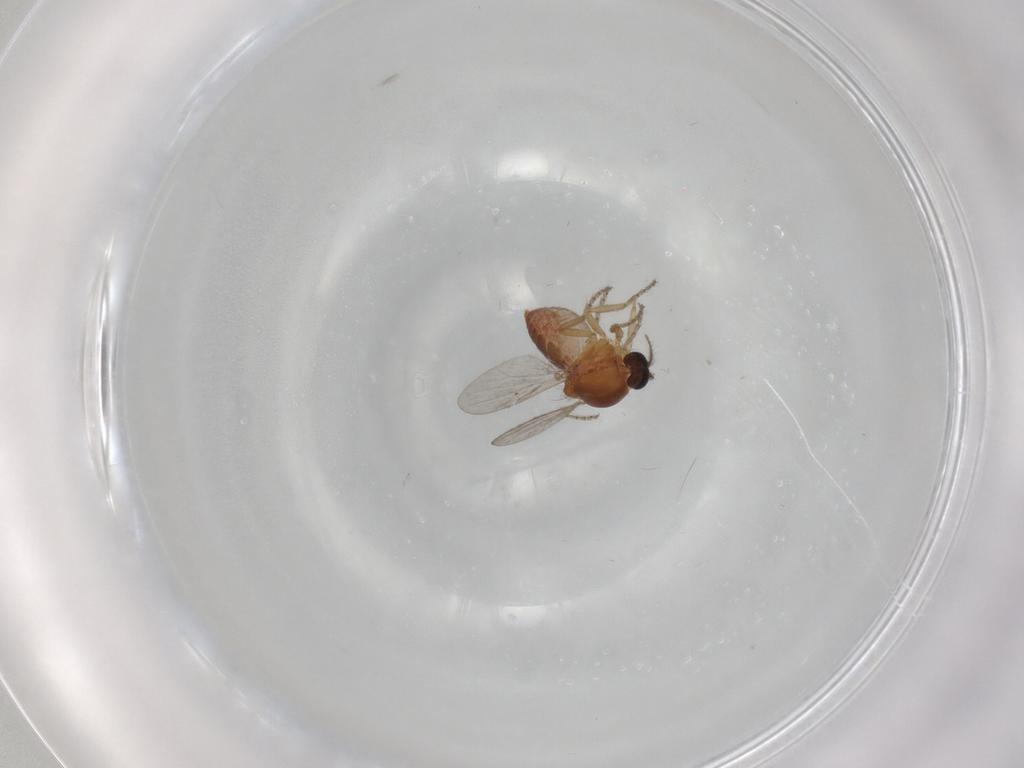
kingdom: Animalia
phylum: Arthropoda
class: Insecta
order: Diptera
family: Ceratopogonidae
